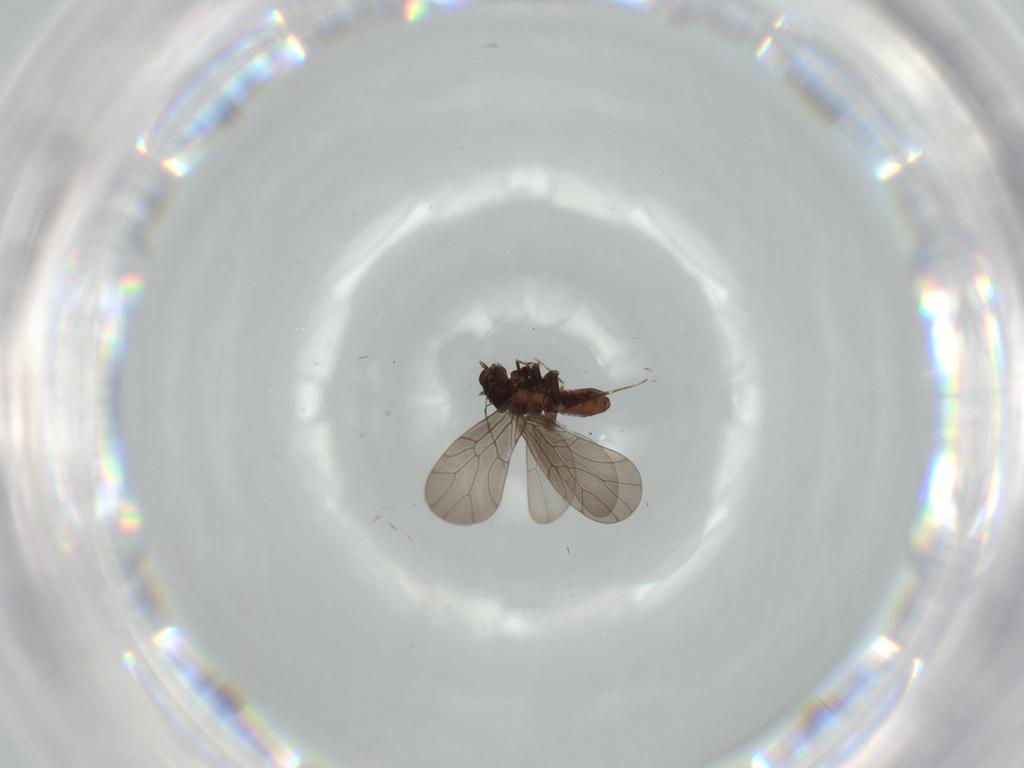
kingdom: Animalia
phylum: Arthropoda
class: Insecta
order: Psocodea
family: Lepidopsocidae
